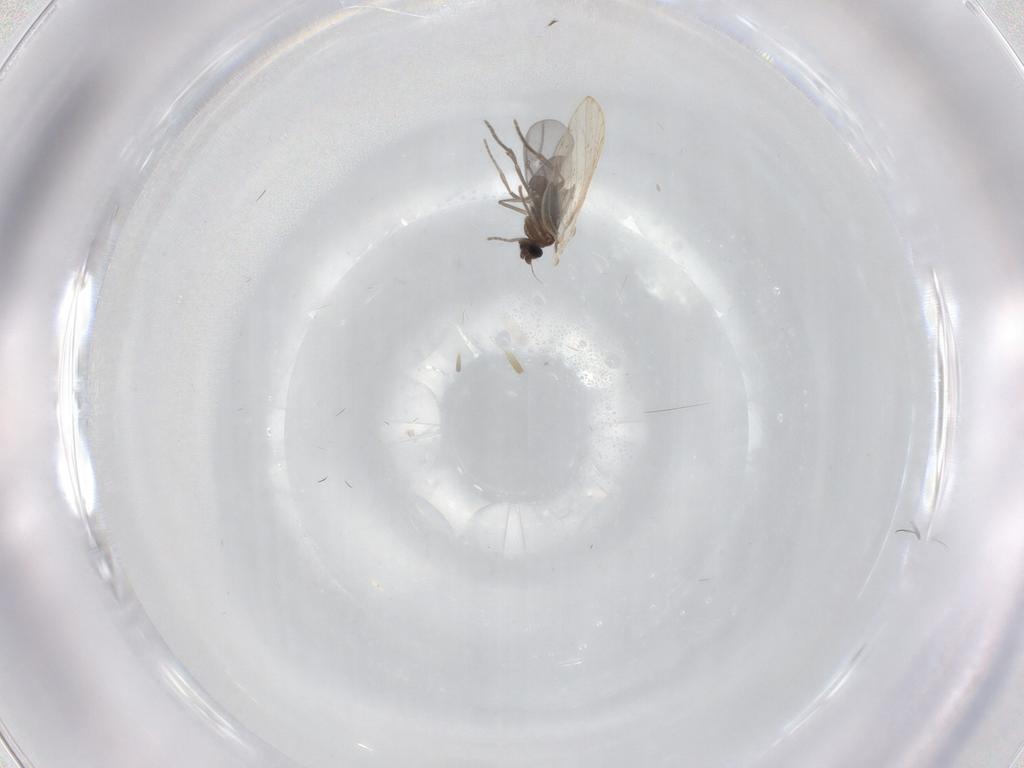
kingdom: Animalia
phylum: Arthropoda
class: Insecta
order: Diptera
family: Phoridae
